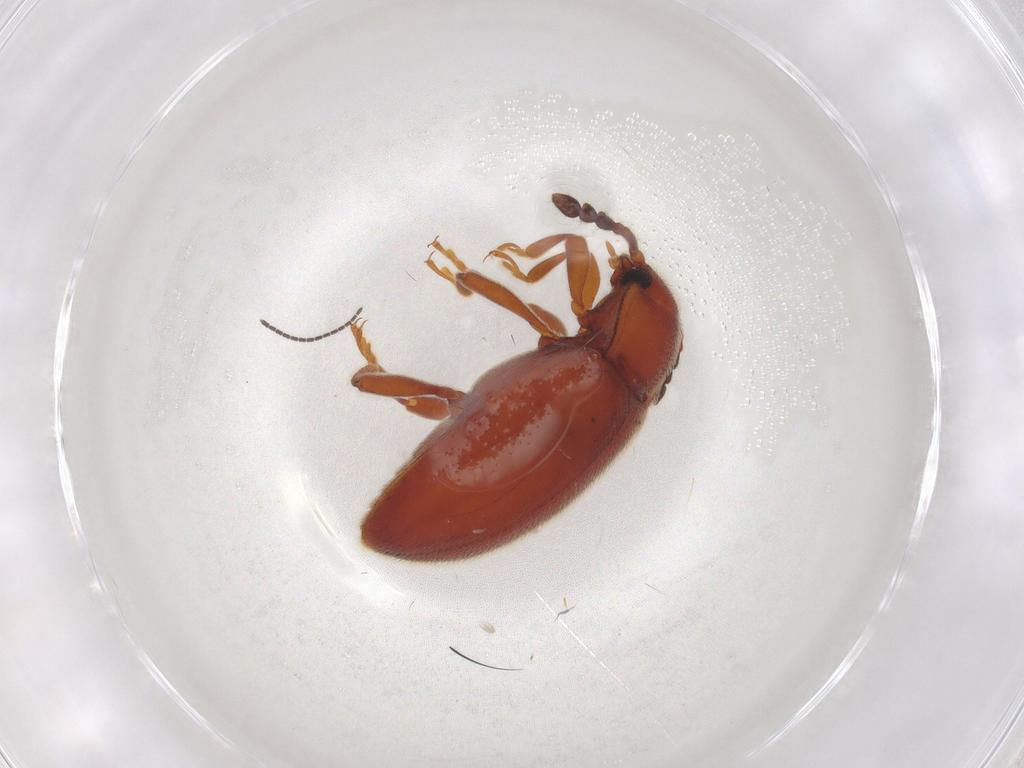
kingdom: Animalia
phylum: Arthropoda
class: Insecta
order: Coleoptera
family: Endomychidae
